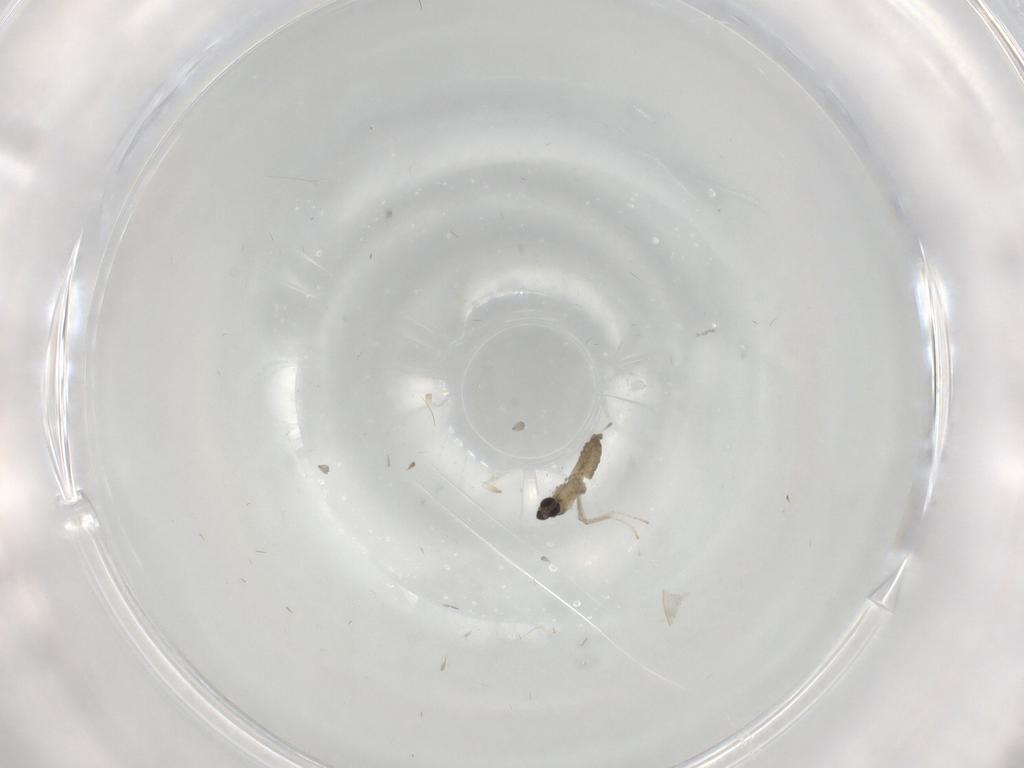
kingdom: Animalia
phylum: Arthropoda
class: Insecta
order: Diptera
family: Cecidomyiidae
